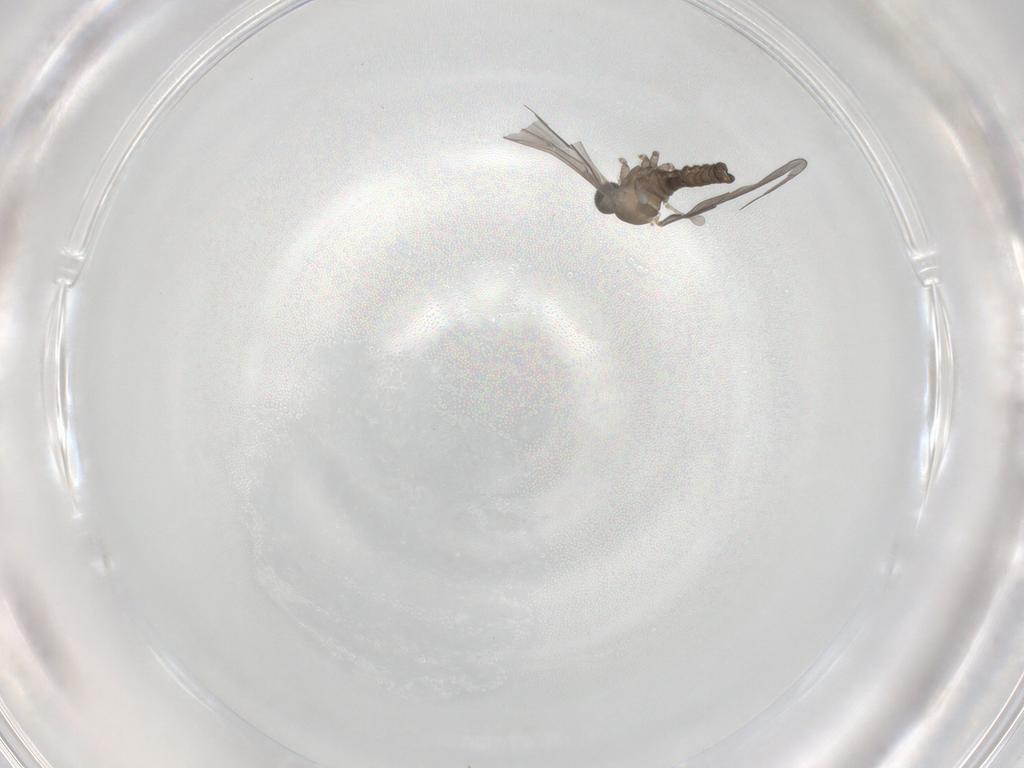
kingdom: Animalia
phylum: Arthropoda
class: Insecta
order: Diptera
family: Cecidomyiidae
